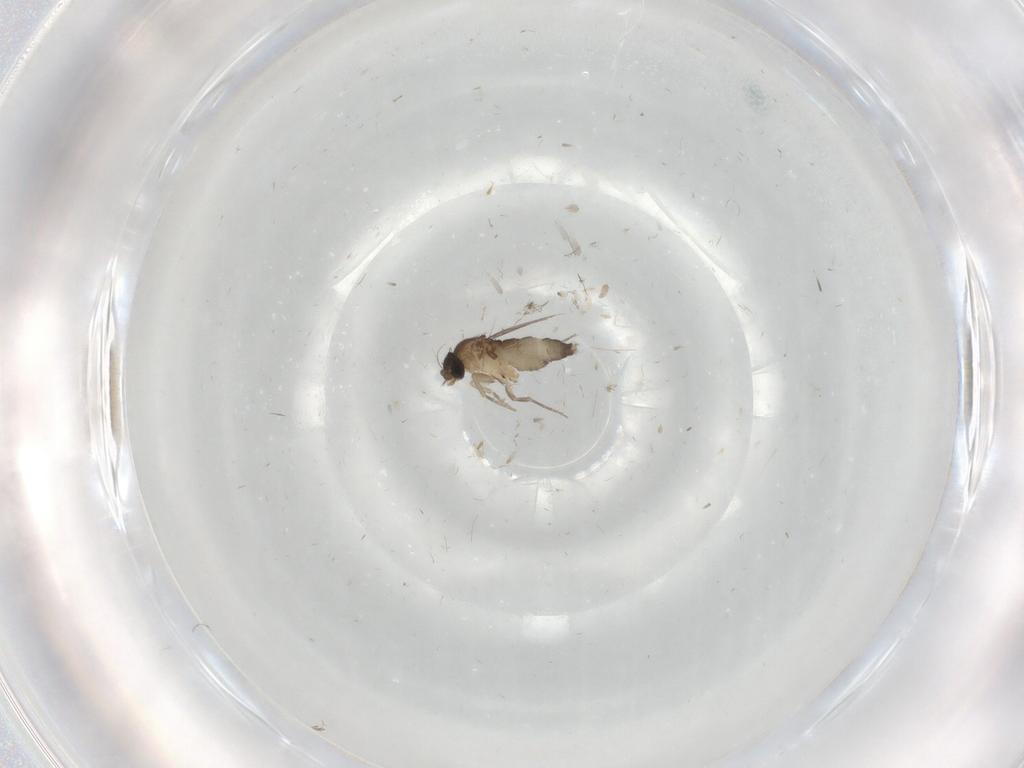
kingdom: Animalia
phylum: Arthropoda
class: Insecta
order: Diptera
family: Phoridae
